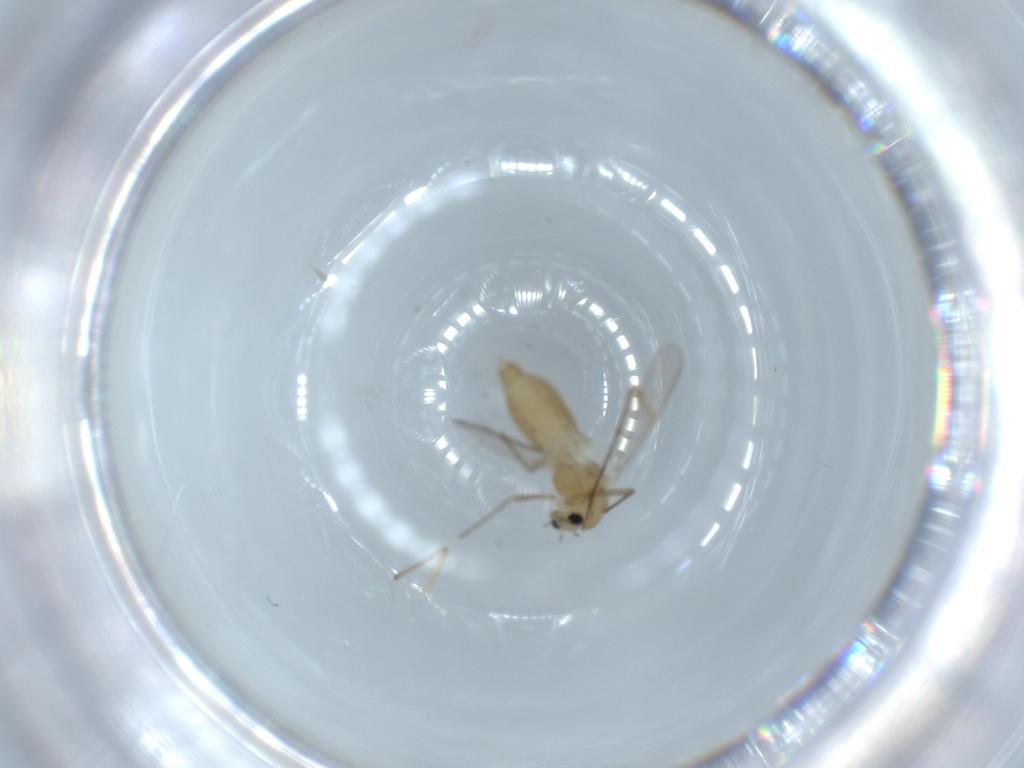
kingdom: Animalia
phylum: Arthropoda
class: Insecta
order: Diptera
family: Chironomidae
